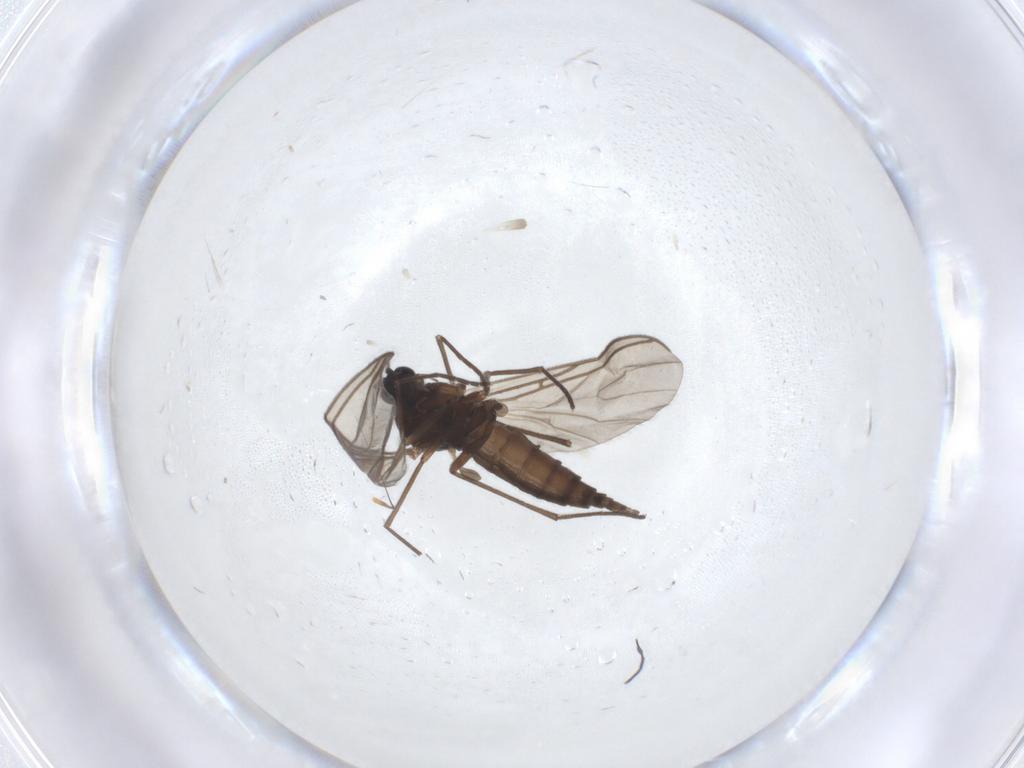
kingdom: Animalia
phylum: Arthropoda
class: Insecta
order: Diptera
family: Sciaridae
